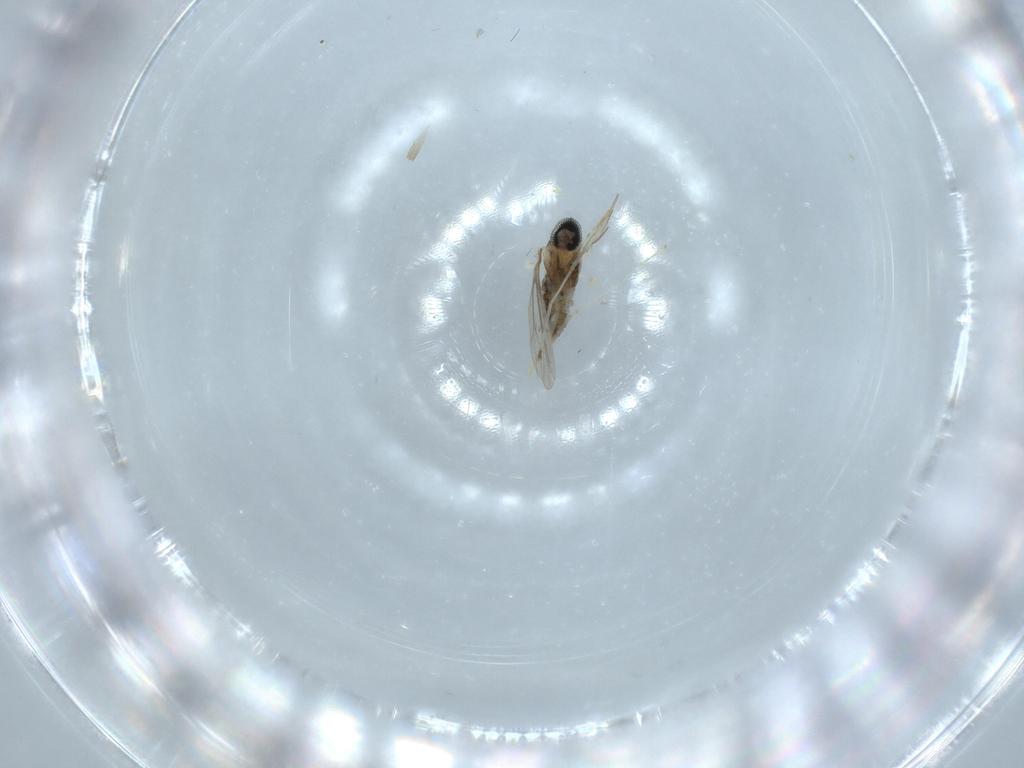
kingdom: Animalia
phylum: Arthropoda
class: Insecta
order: Diptera
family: Cecidomyiidae
